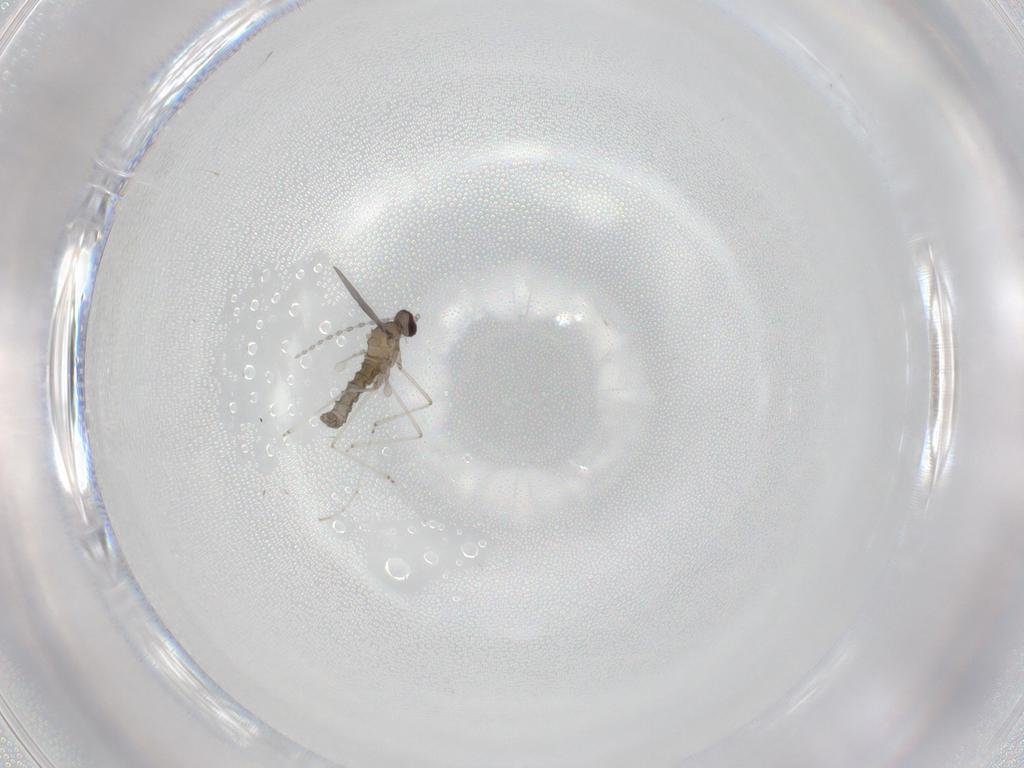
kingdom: Animalia
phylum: Arthropoda
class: Insecta
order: Diptera
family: Cecidomyiidae
